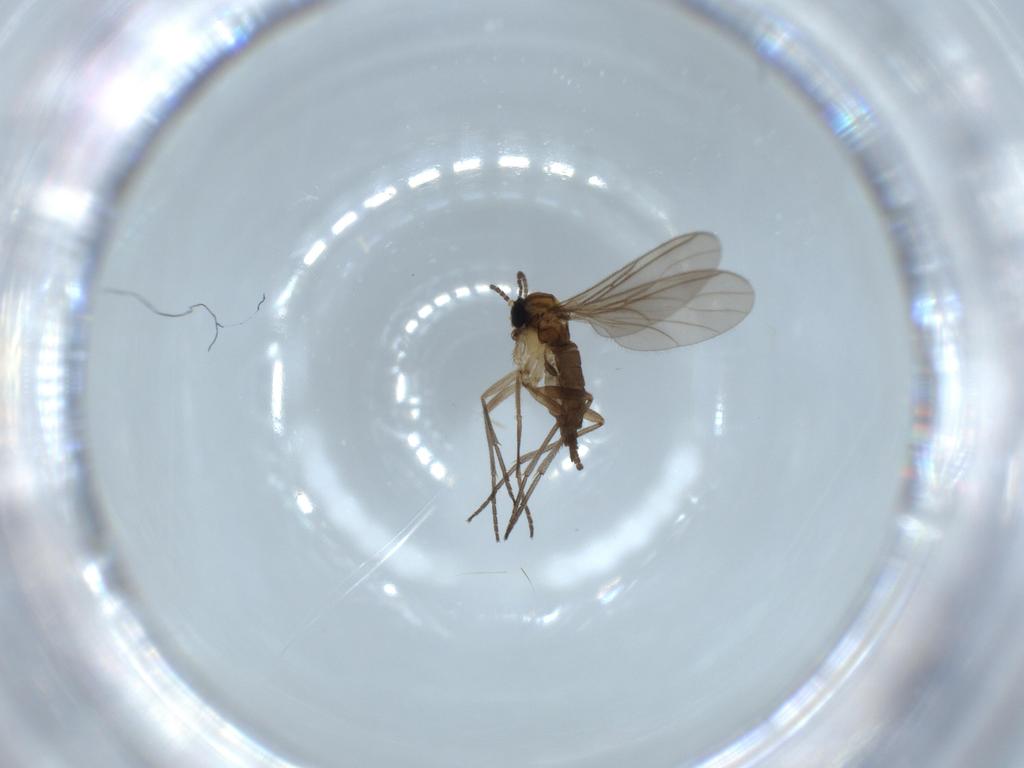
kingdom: Animalia
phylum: Arthropoda
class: Insecta
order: Diptera
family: Sciaridae
